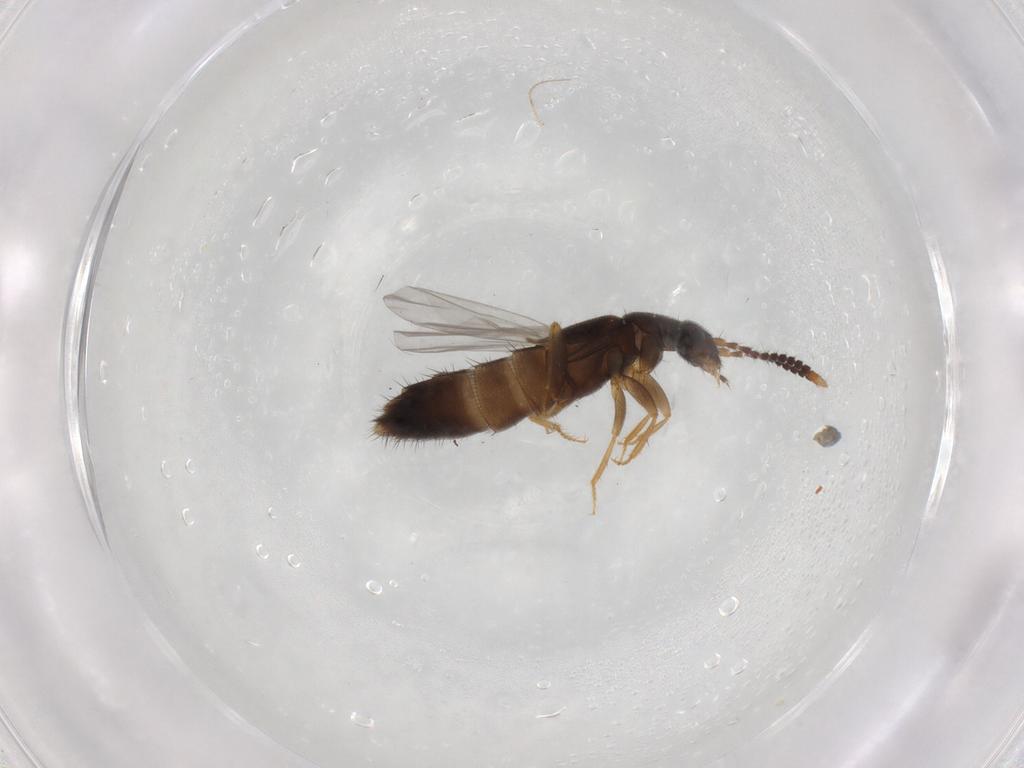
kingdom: Animalia
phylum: Arthropoda
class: Insecta
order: Coleoptera
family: Staphylinidae
